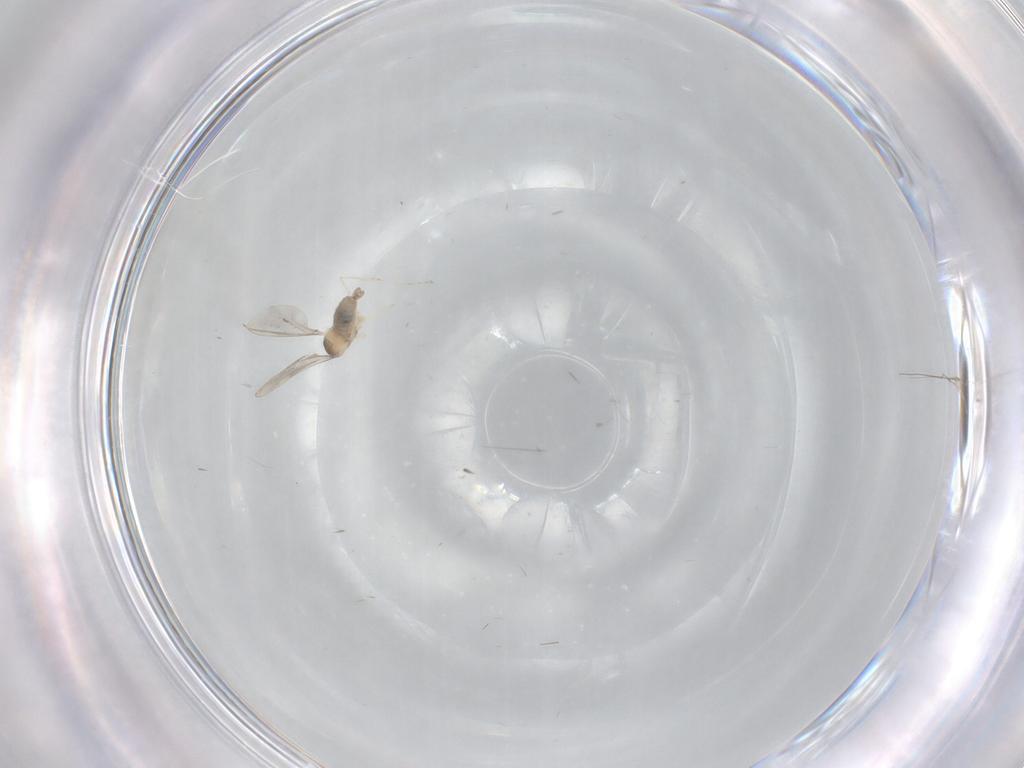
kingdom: Animalia
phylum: Arthropoda
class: Insecta
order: Diptera
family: Cecidomyiidae
